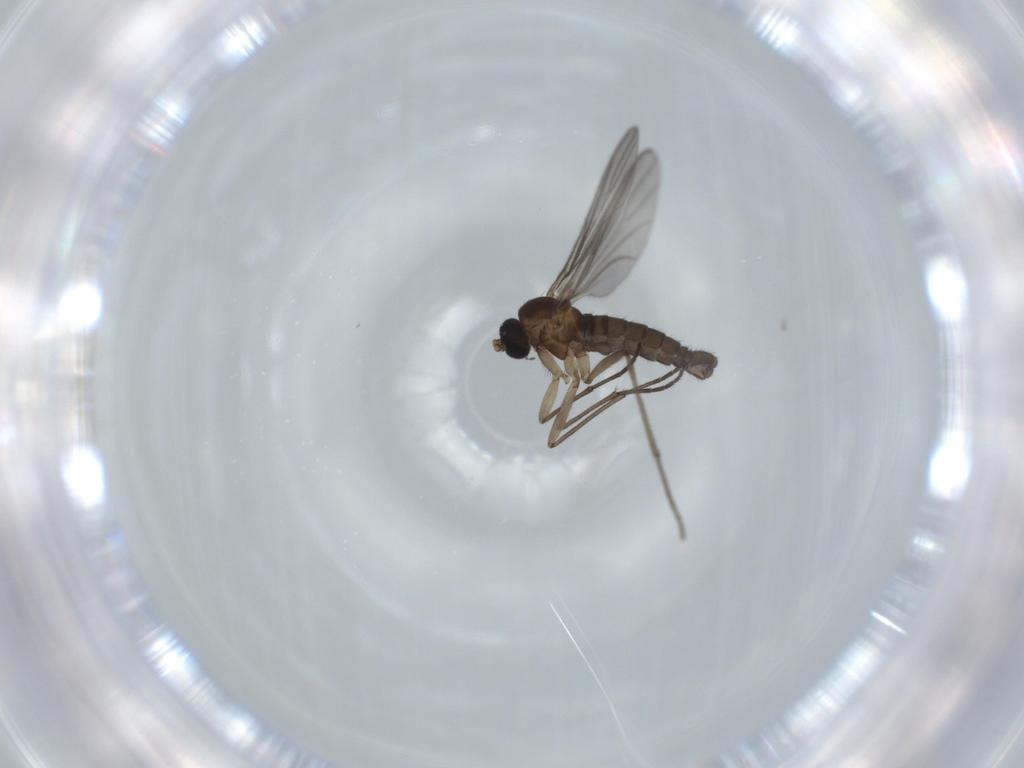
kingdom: Animalia
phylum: Arthropoda
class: Insecta
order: Diptera
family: Sciaridae
